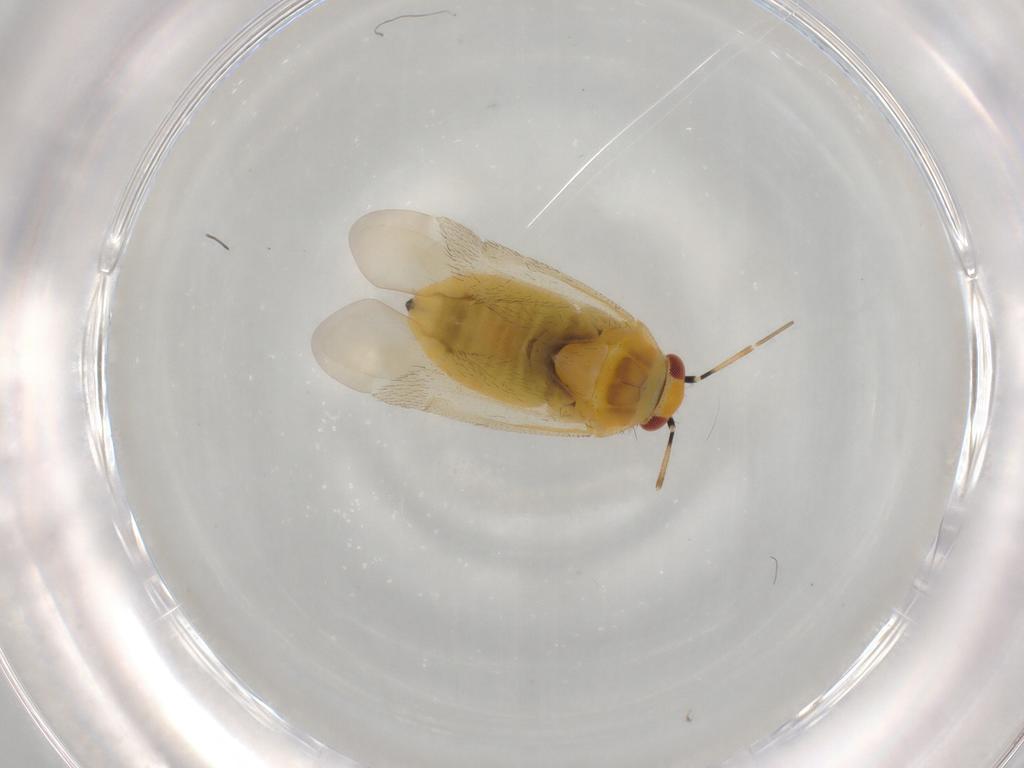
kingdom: Animalia
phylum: Arthropoda
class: Insecta
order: Hemiptera
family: Miridae
